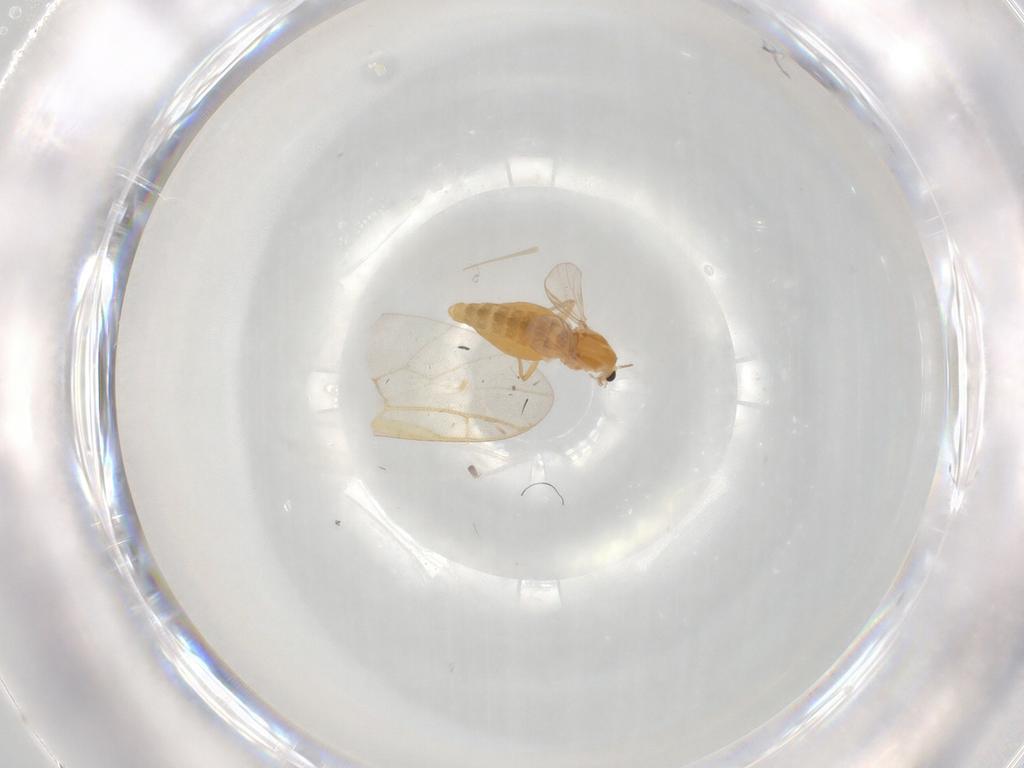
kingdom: Animalia
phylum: Arthropoda
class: Insecta
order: Diptera
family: Chironomidae
